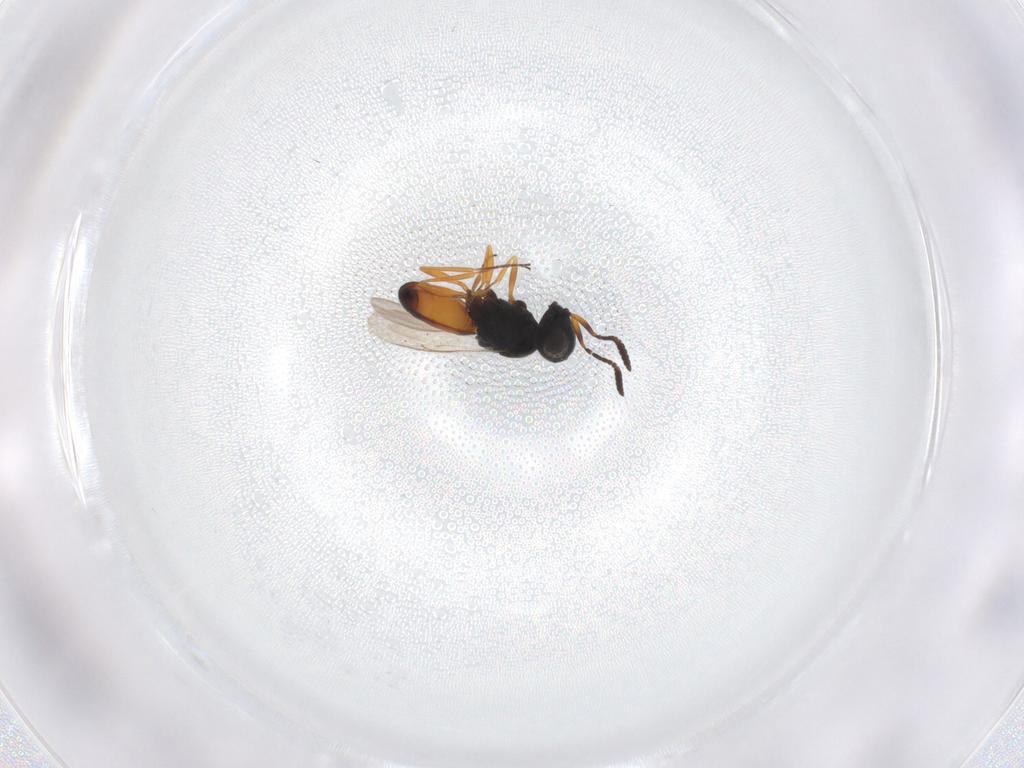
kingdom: Animalia
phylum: Arthropoda
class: Insecta
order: Hymenoptera
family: Scelionidae
